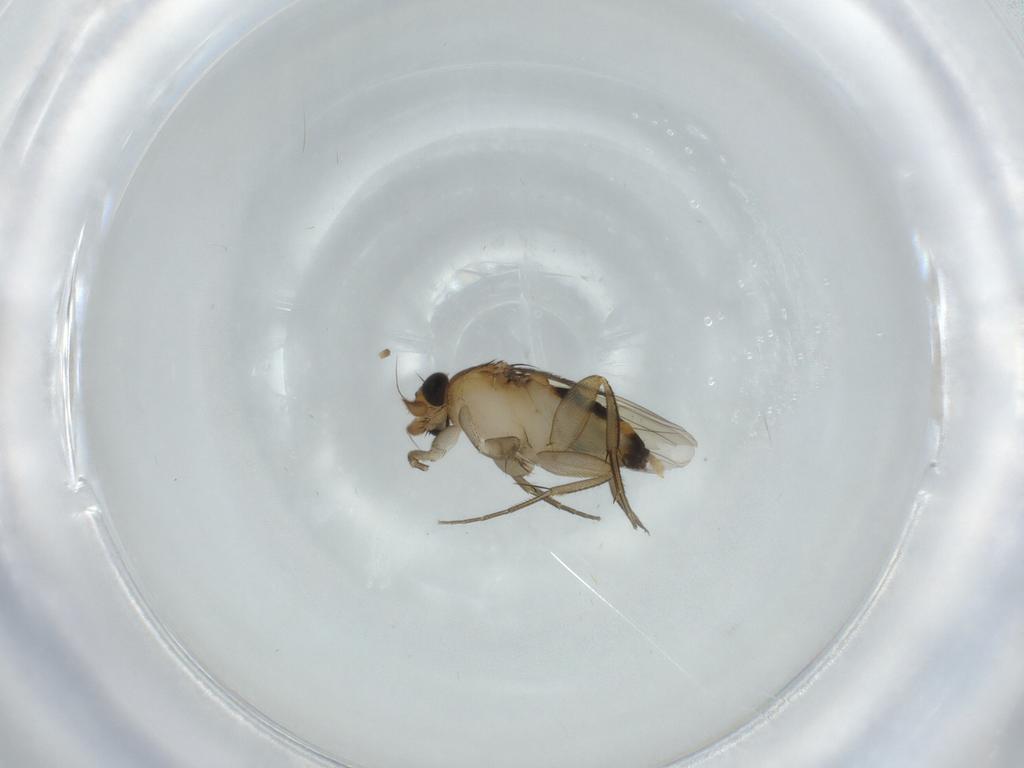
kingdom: Animalia
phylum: Arthropoda
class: Insecta
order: Diptera
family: Phoridae
